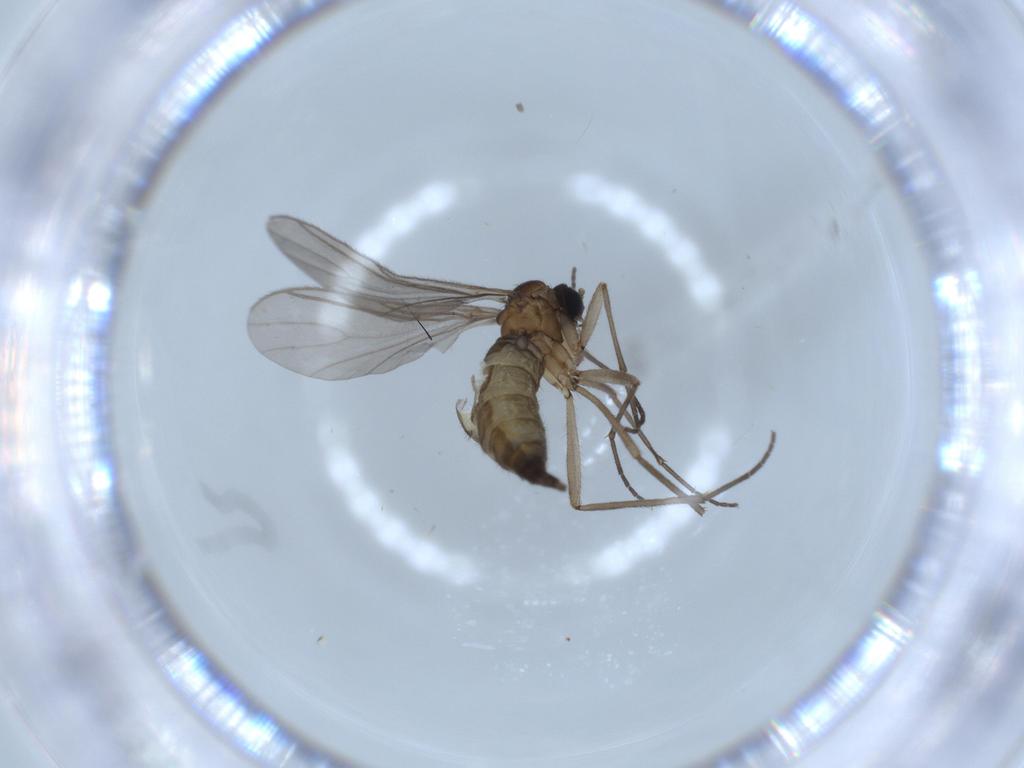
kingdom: Animalia
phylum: Arthropoda
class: Insecta
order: Diptera
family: Sciaridae
